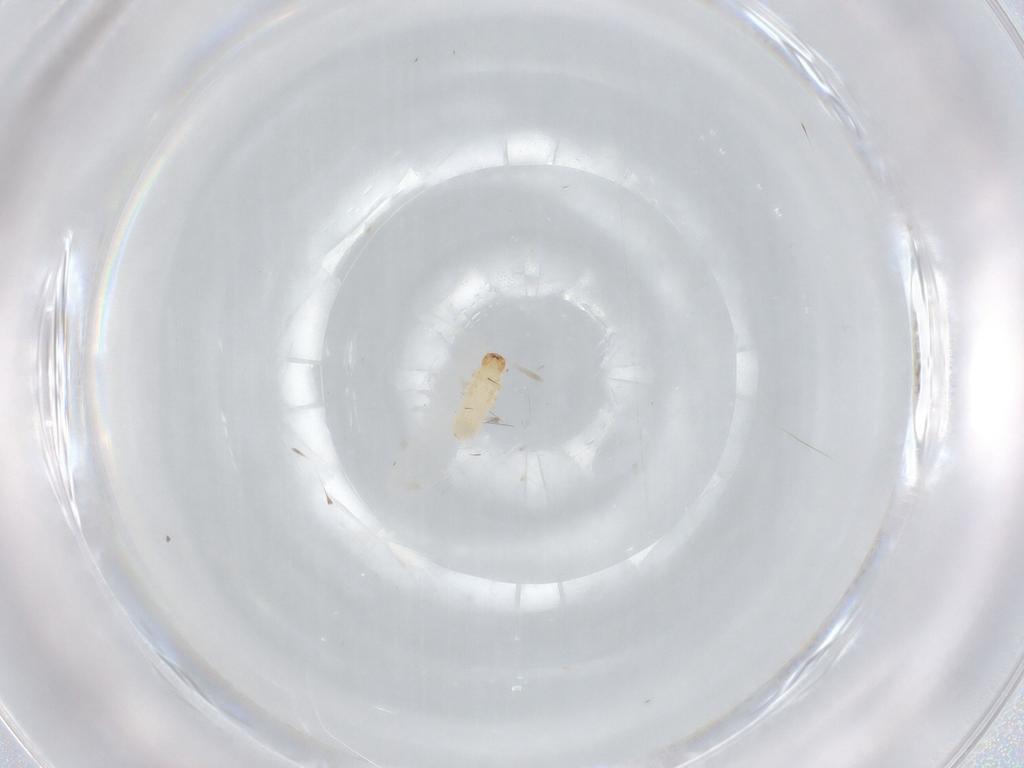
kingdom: Animalia
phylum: Arthropoda
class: Insecta
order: Coleoptera
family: Chrysomelidae
